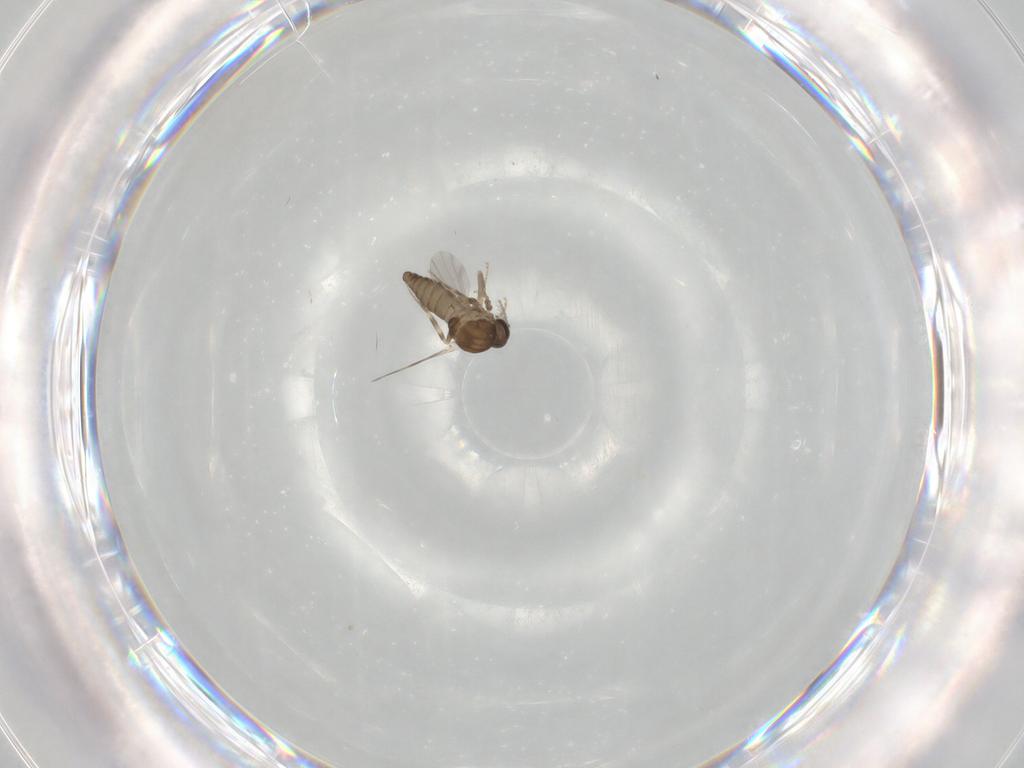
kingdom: Animalia
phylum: Arthropoda
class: Insecta
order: Diptera
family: Ceratopogonidae
